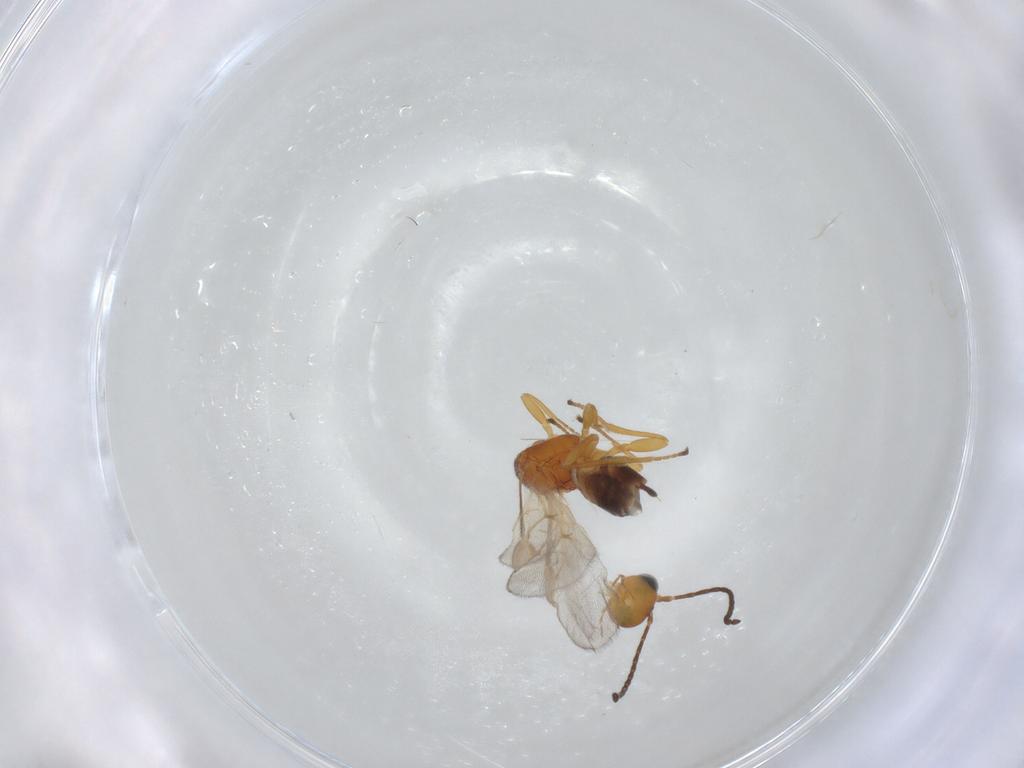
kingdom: Animalia
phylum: Arthropoda
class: Insecta
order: Hymenoptera
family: Braconidae
